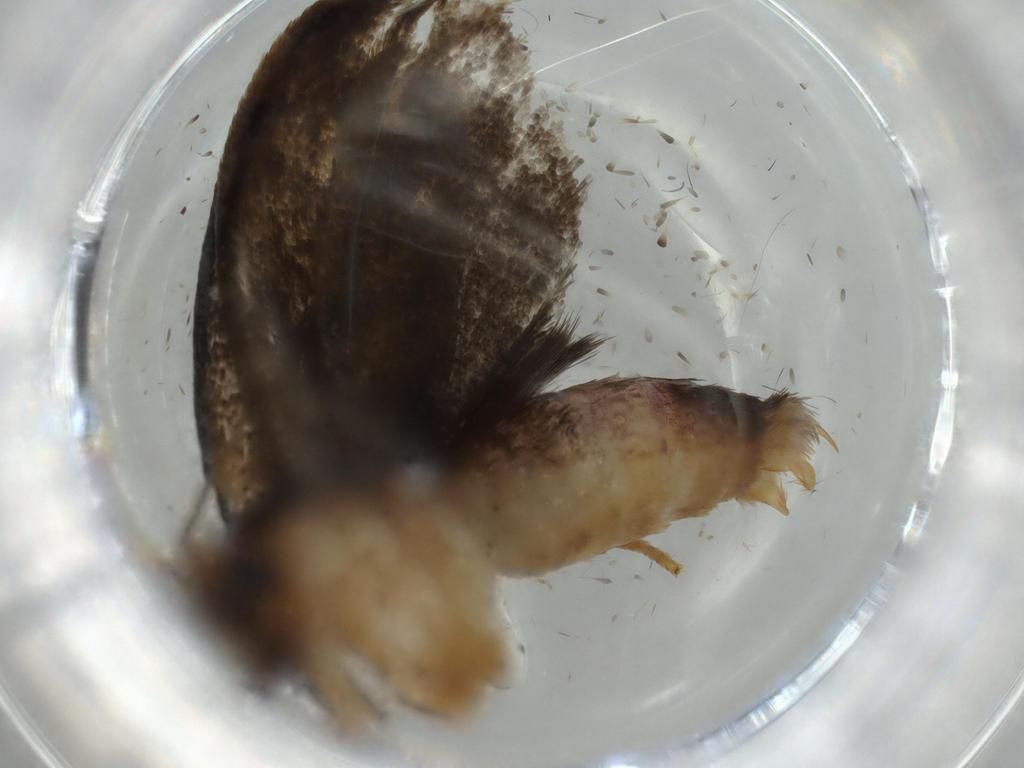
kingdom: Animalia
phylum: Arthropoda
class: Insecta
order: Lepidoptera
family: Tineidae
